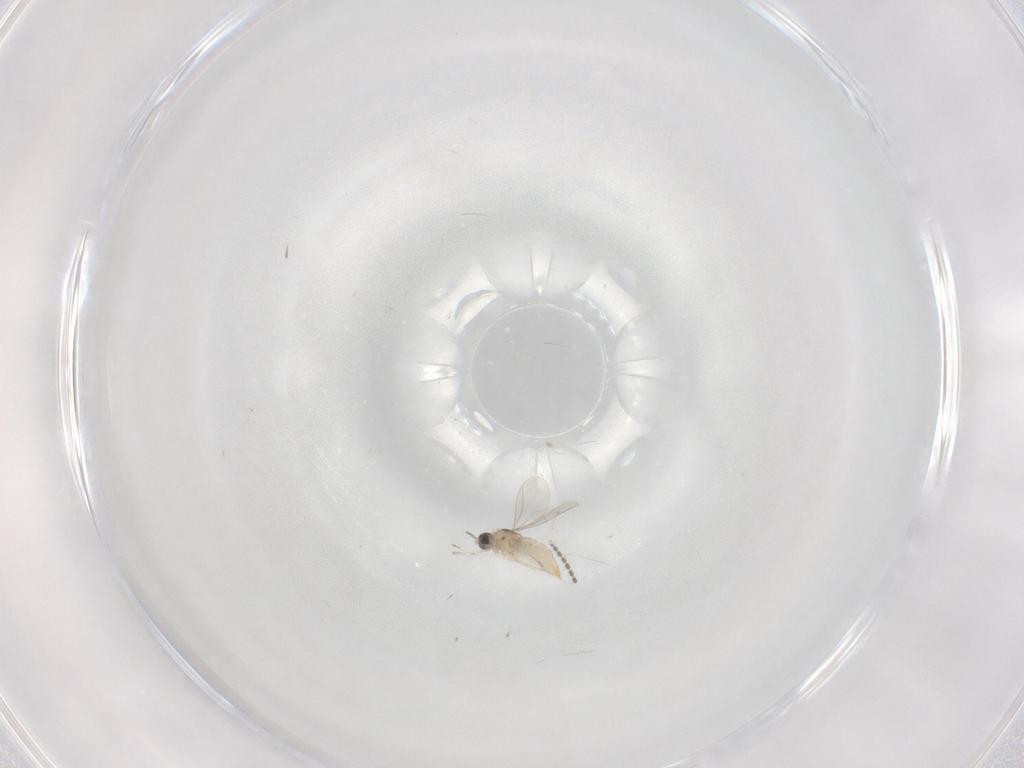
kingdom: Animalia
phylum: Arthropoda
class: Insecta
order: Diptera
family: Cecidomyiidae
